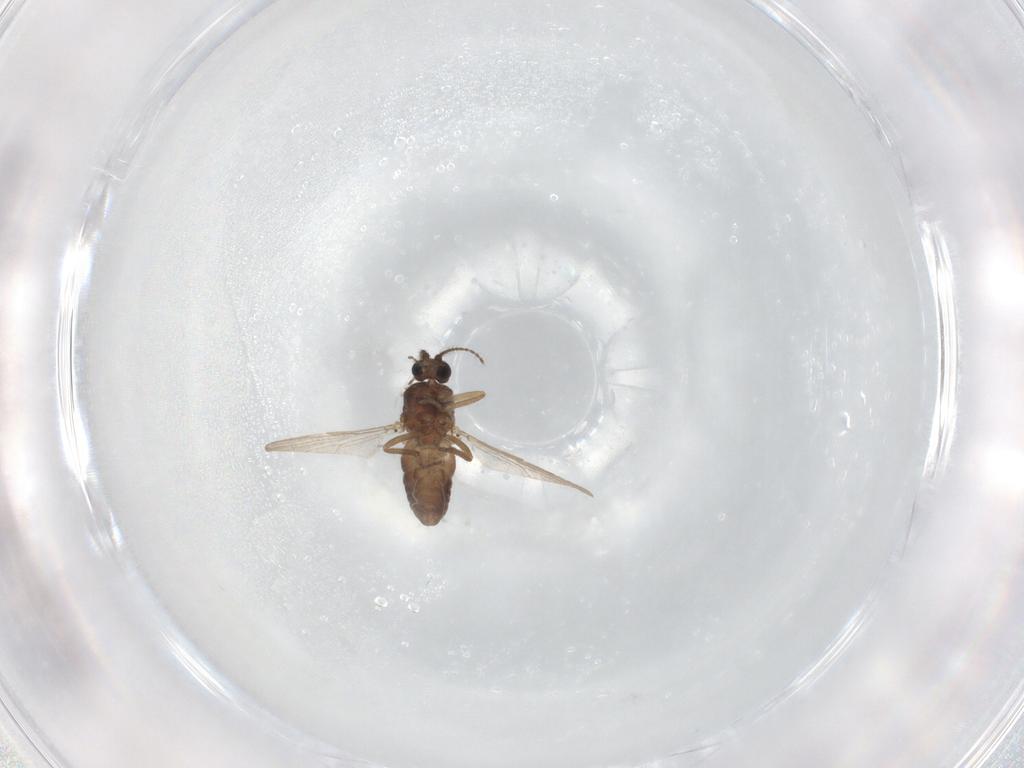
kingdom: Animalia
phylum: Arthropoda
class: Insecta
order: Diptera
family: Ceratopogonidae
